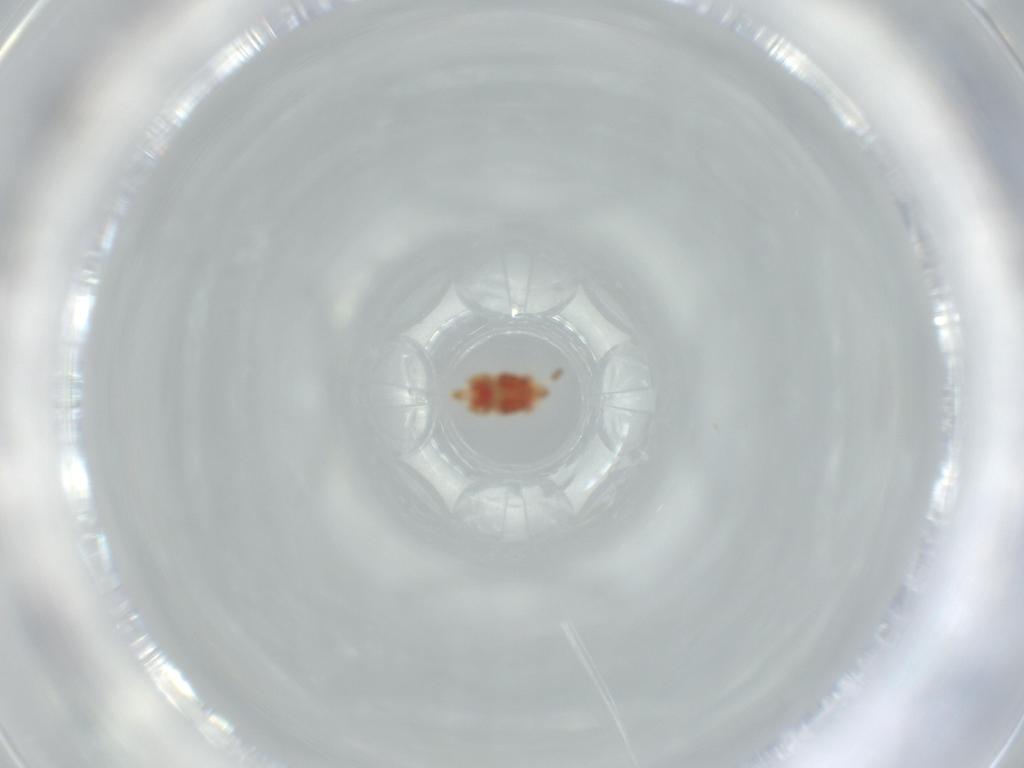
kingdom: Animalia
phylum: Arthropoda
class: Insecta
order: Hemiptera
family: Aradidae
